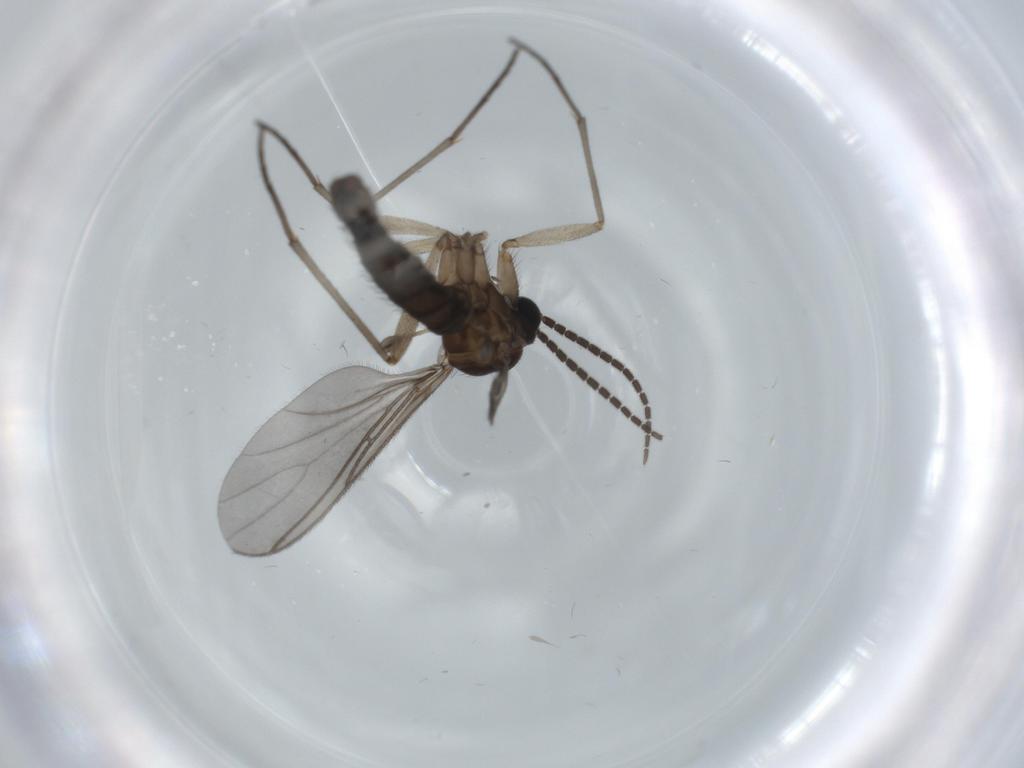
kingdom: Animalia
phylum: Arthropoda
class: Insecta
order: Diptera
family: Sciaridae
